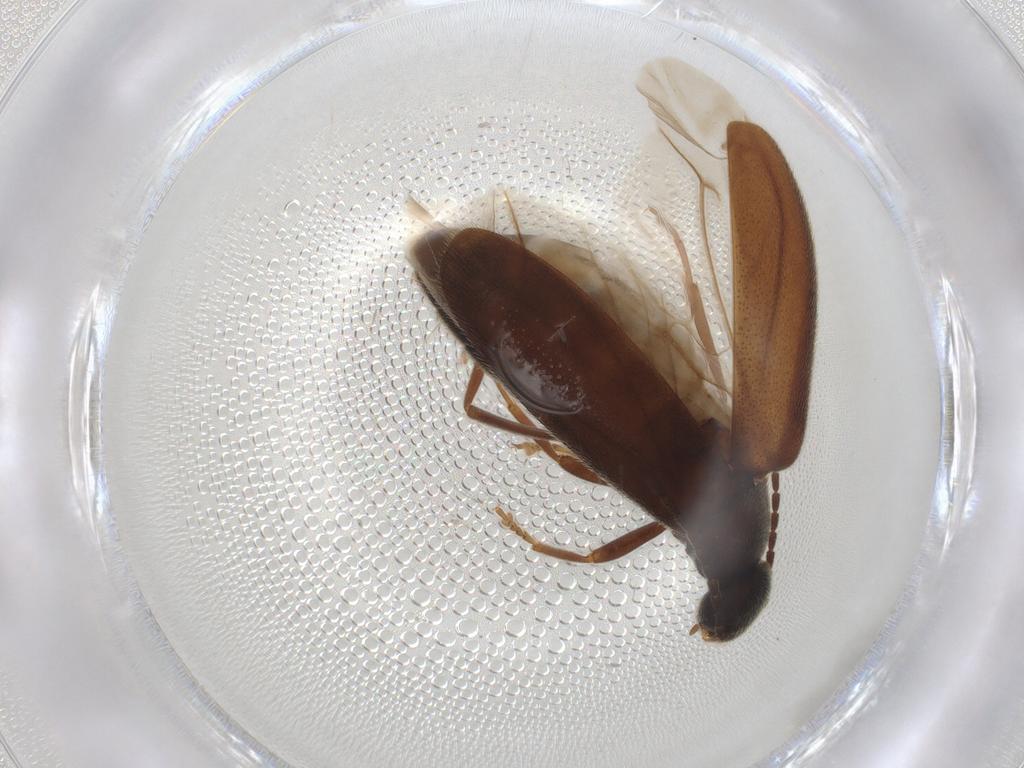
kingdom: Animalia
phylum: Arthropoda
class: Insecta
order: Coleoptera
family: Scraptiidae
